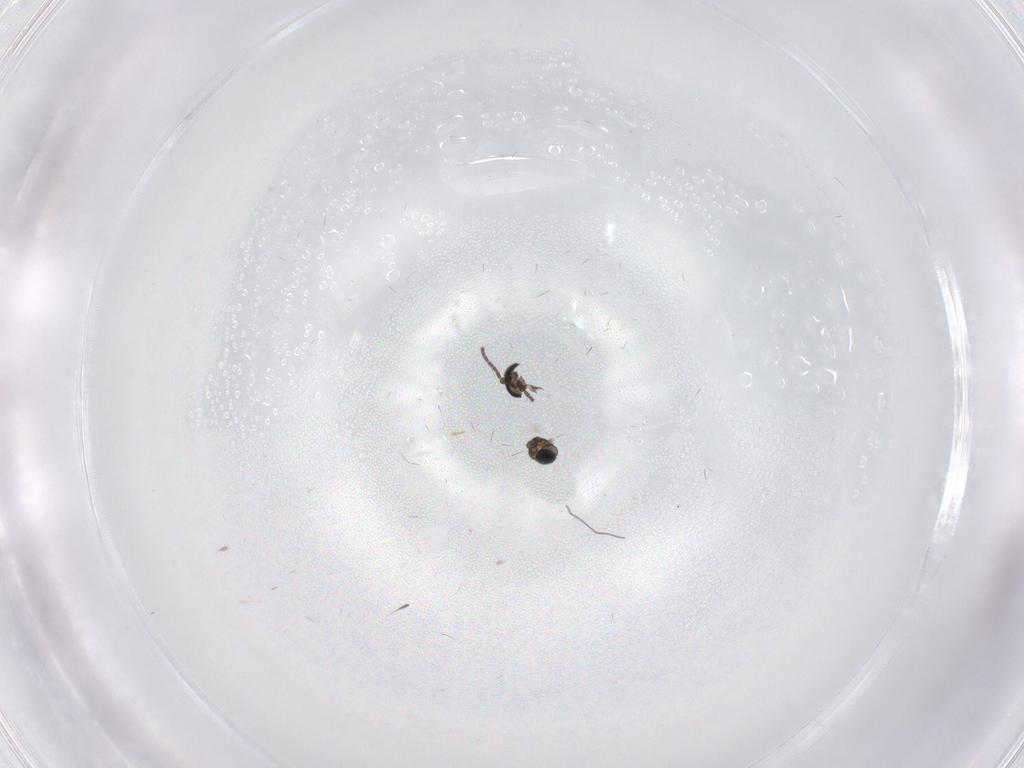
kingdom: Animalia
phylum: Arthropoda
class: Insecta
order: Diptera
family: Sciaridae
